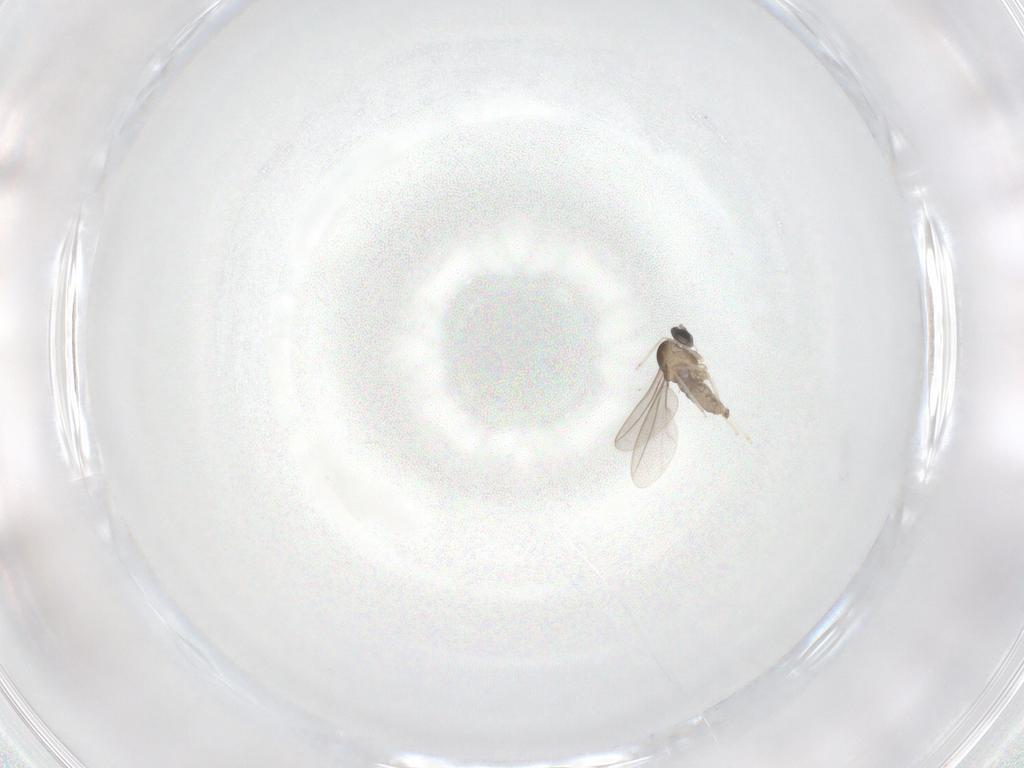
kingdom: Animalia
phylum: Arthropoda
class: Insecta
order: Diptera
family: Cecidomyiidae
